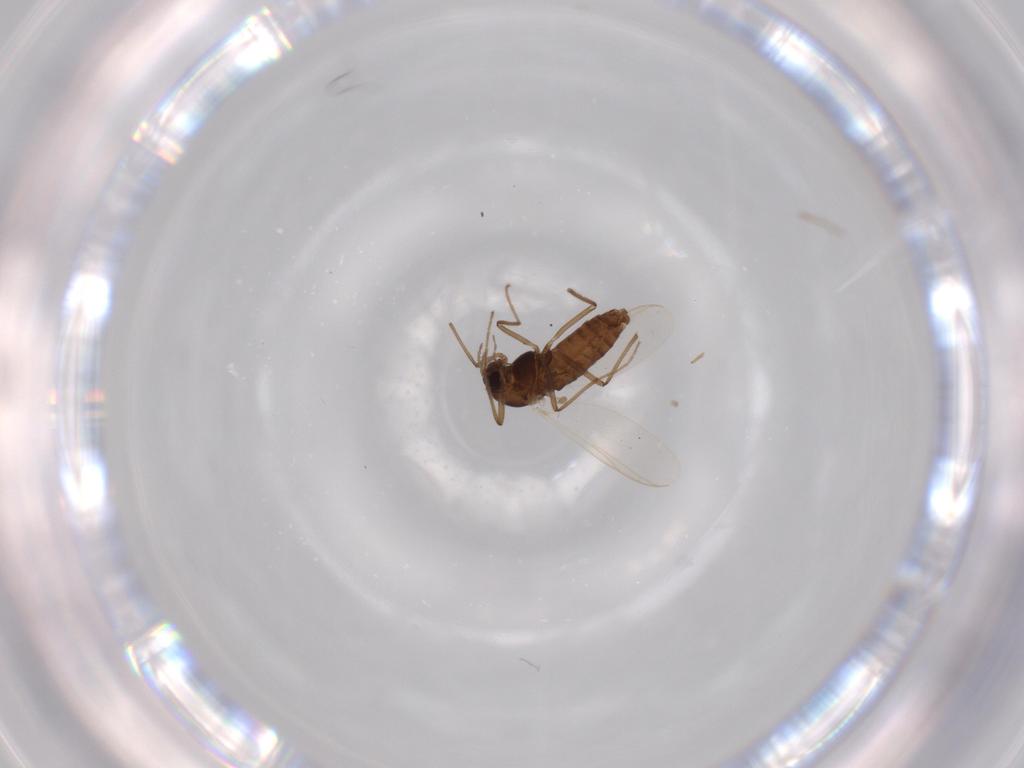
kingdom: Animalia
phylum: Arthropoda
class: Insecta
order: Diptera
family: Chironomidae
